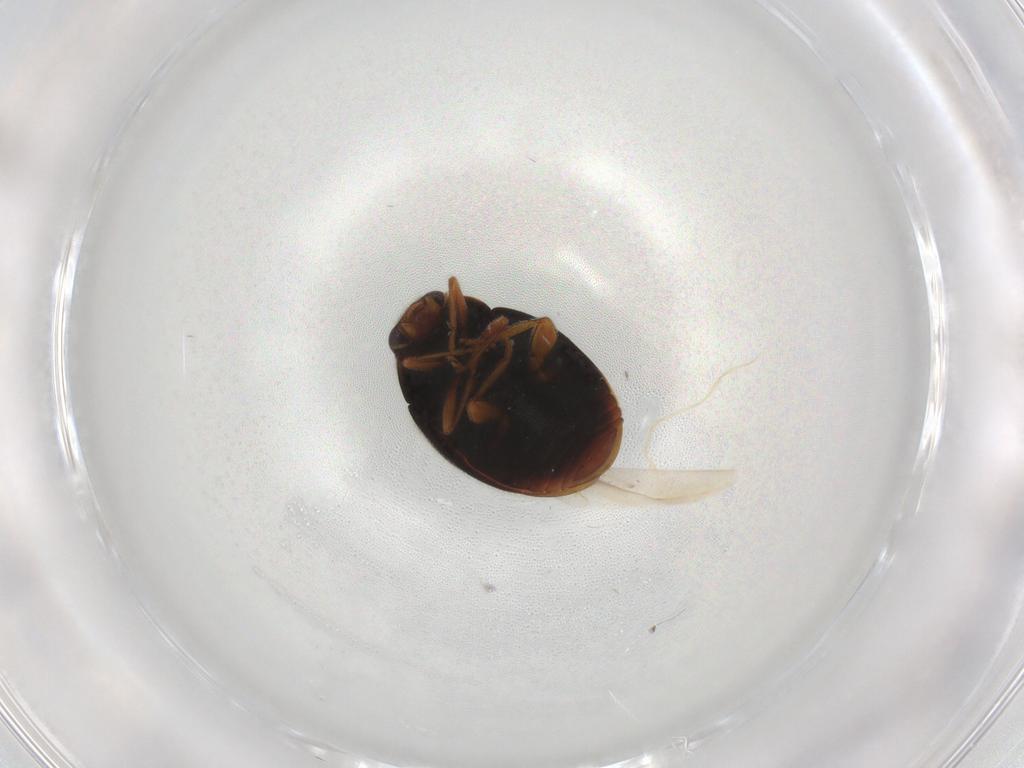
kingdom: Animalia
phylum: Arthropoda
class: Insecta
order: Coleoptera
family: Coccinellidae
